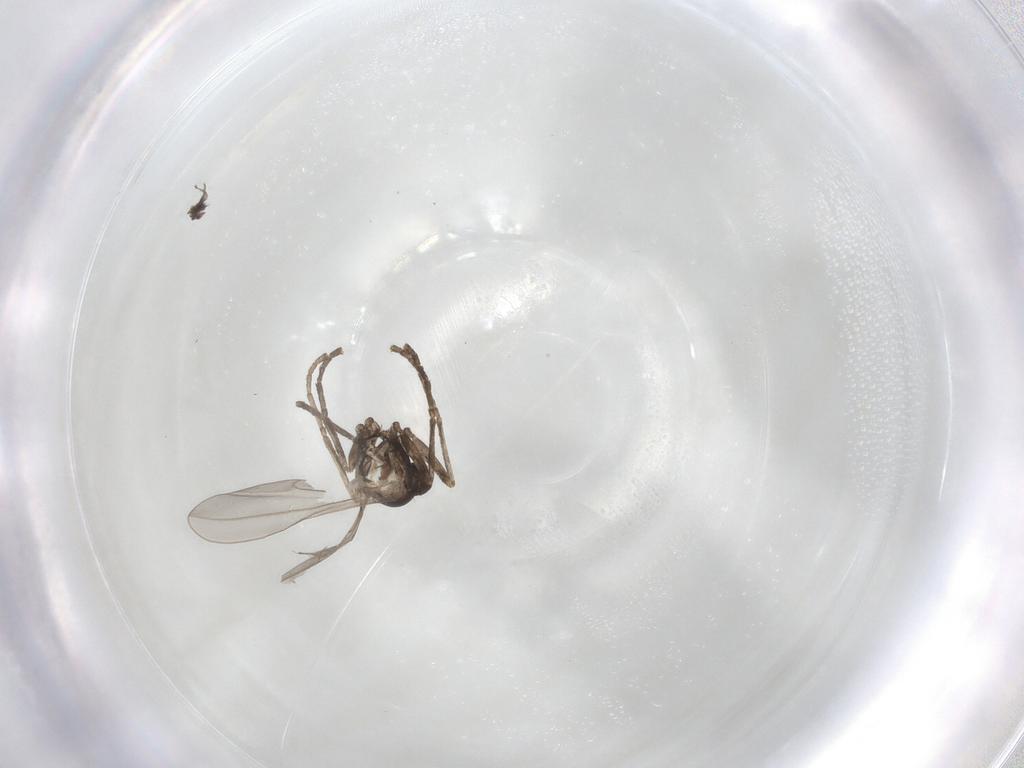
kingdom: Animalia
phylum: Arthropoda
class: Insecta
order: Diptera
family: Cecidomyiidae
